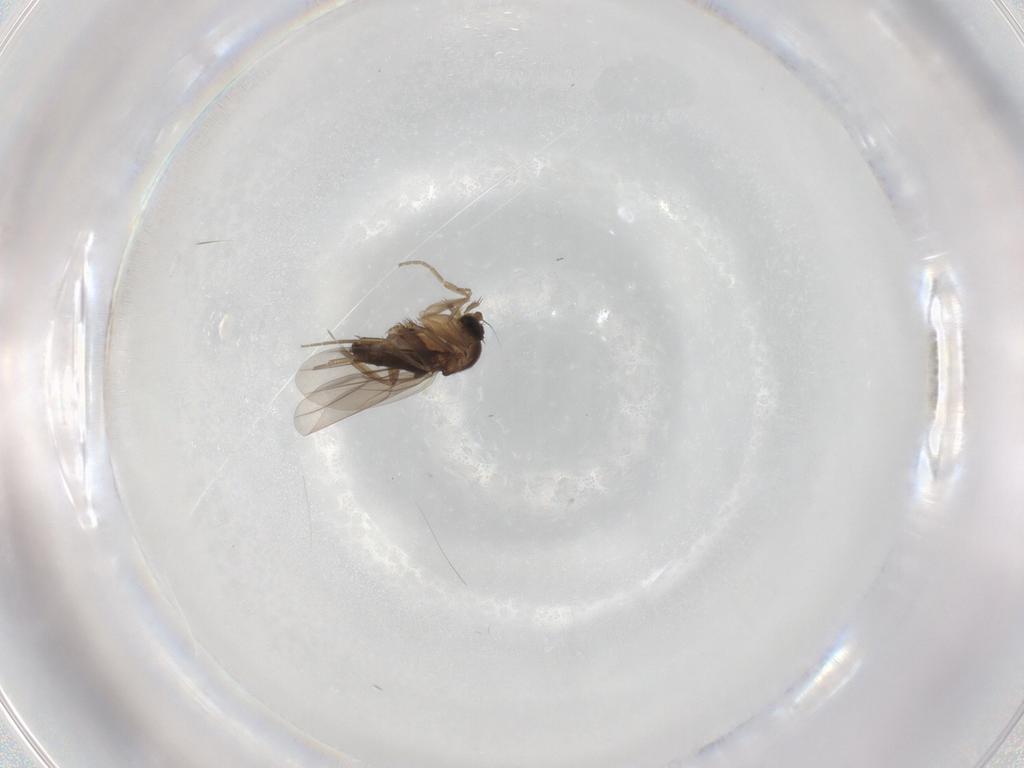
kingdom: Animalia
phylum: Arthropoda
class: Insecta
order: Diptera
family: Phoridae
